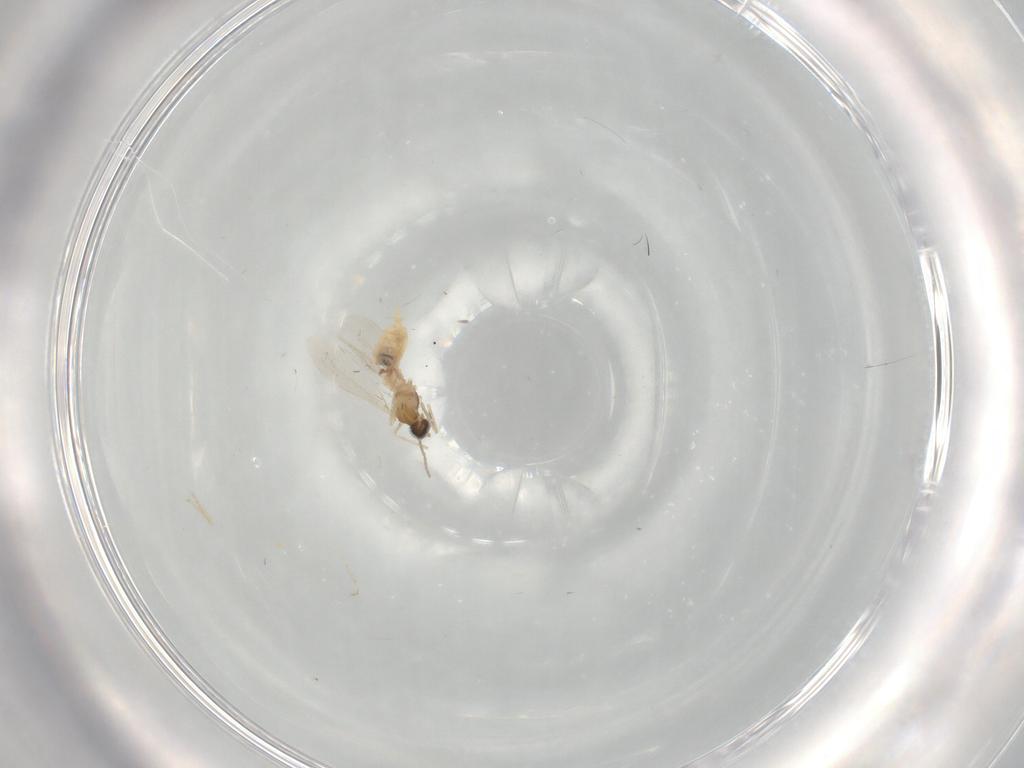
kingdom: Animalia
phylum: Arthropoda
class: Insecta
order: Diptera
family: Cecidomyiidae
